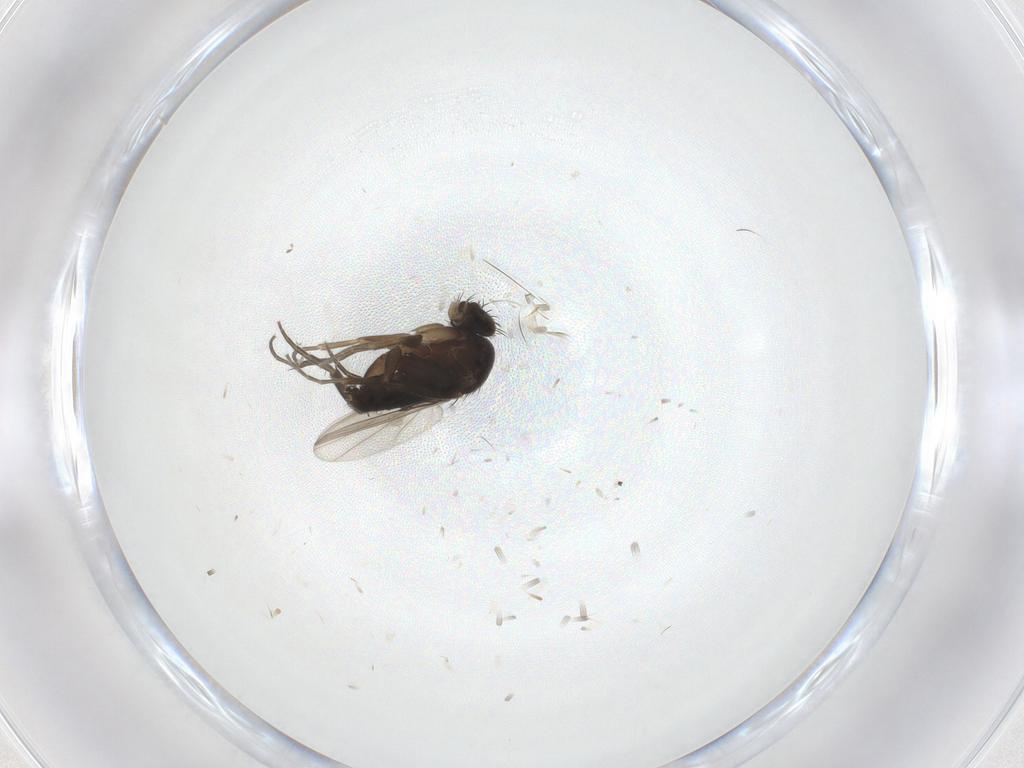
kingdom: Animalia
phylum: Arthropoda
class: Insecta
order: Diptera
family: Phoridae
